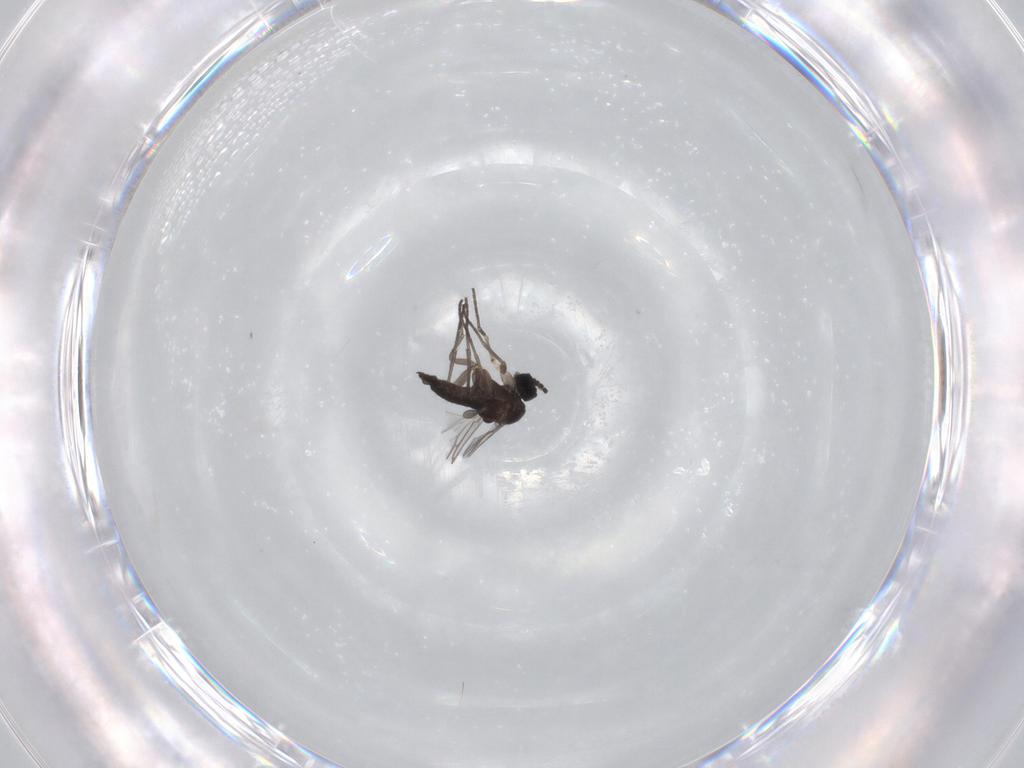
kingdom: Animalia
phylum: Arthropoda
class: Insecta
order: Diptera
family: Sciaridae
